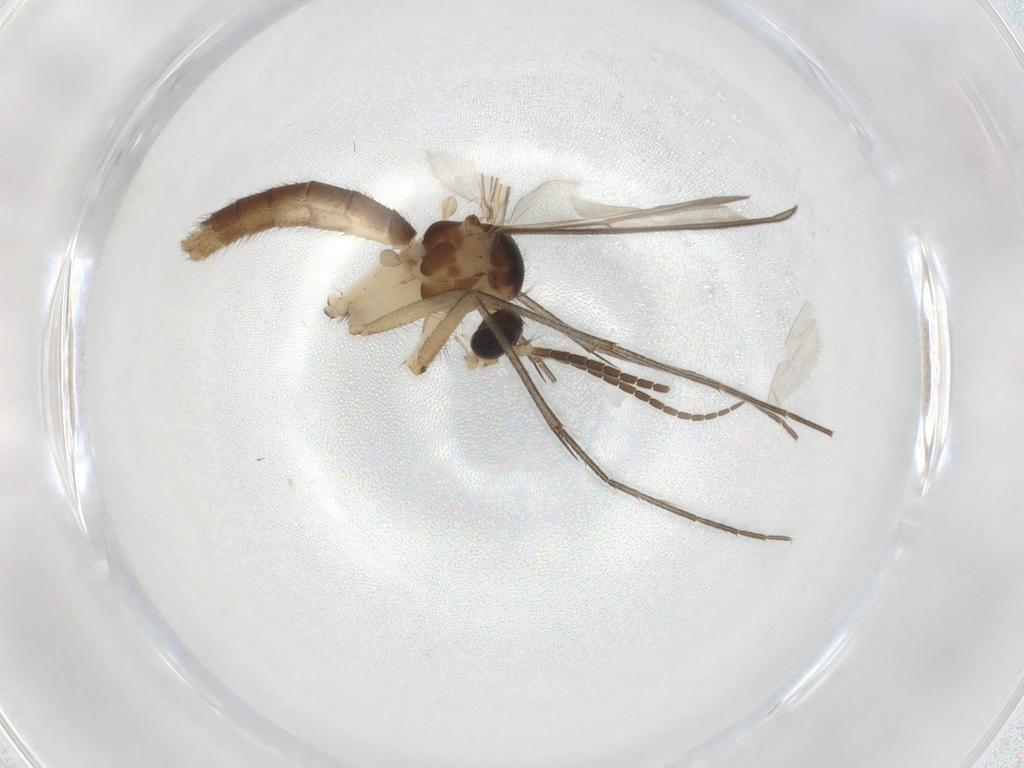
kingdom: Animalia
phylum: Arthropoda
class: Insecta
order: Diptera
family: Mycetophilidae
